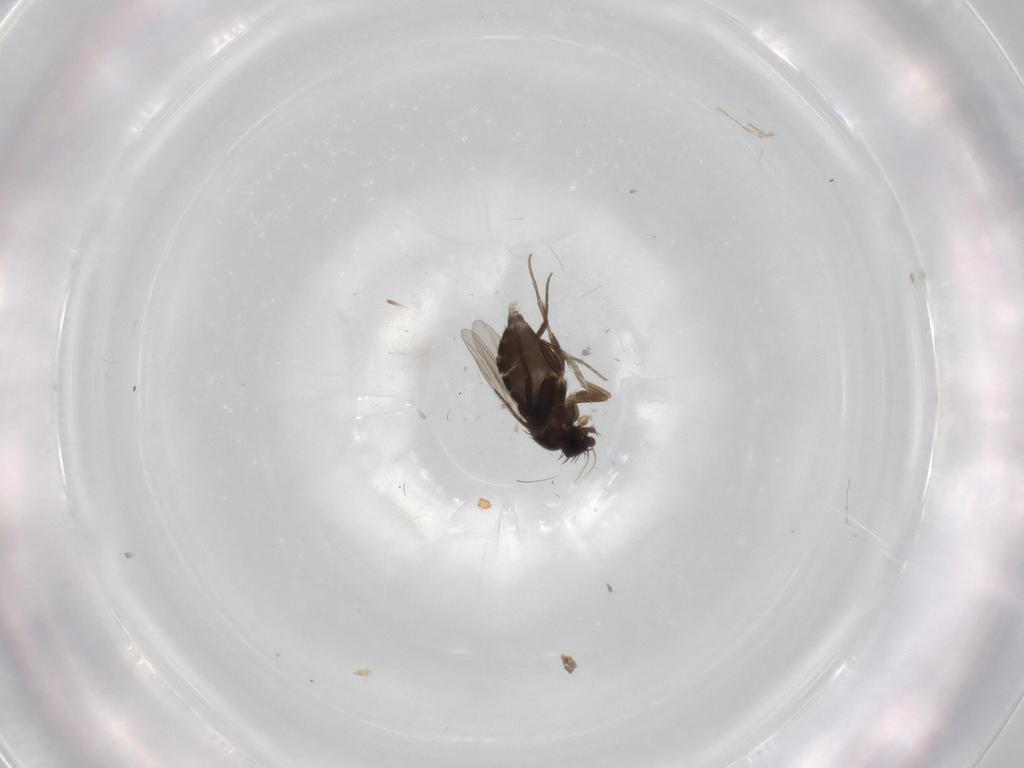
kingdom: Animalia
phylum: Arthropoda
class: Insecta
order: Diptera
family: Phoridae
